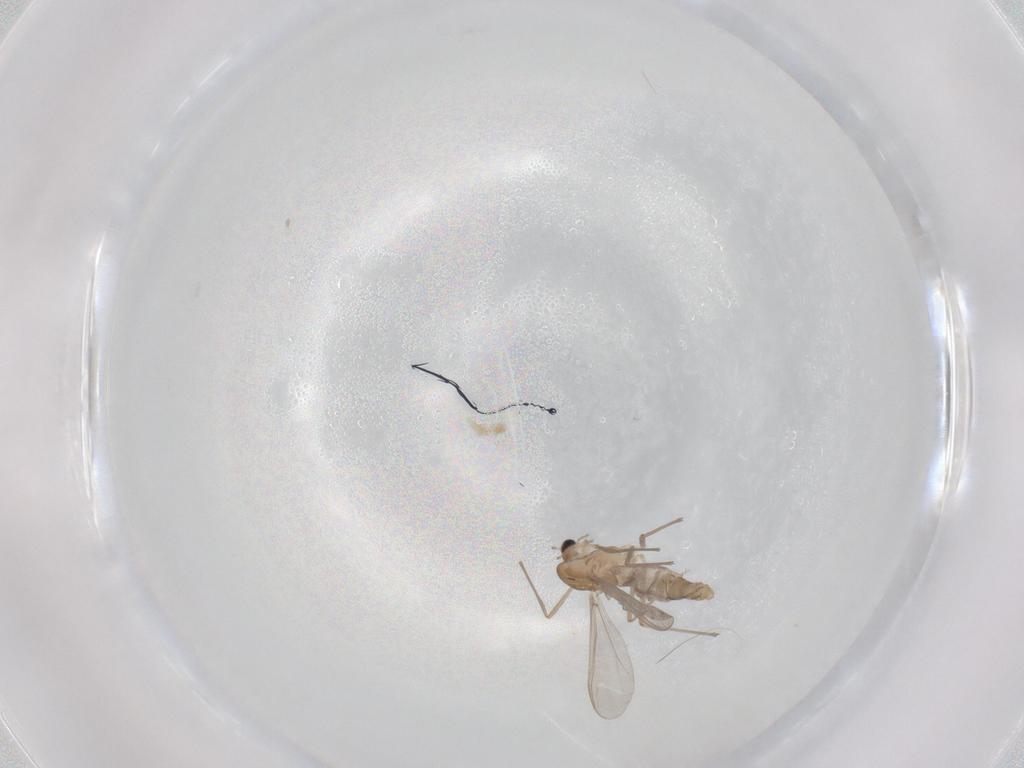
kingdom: Animalia
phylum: Arthropoda
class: Insecta
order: Diptera
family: Chironomidae
